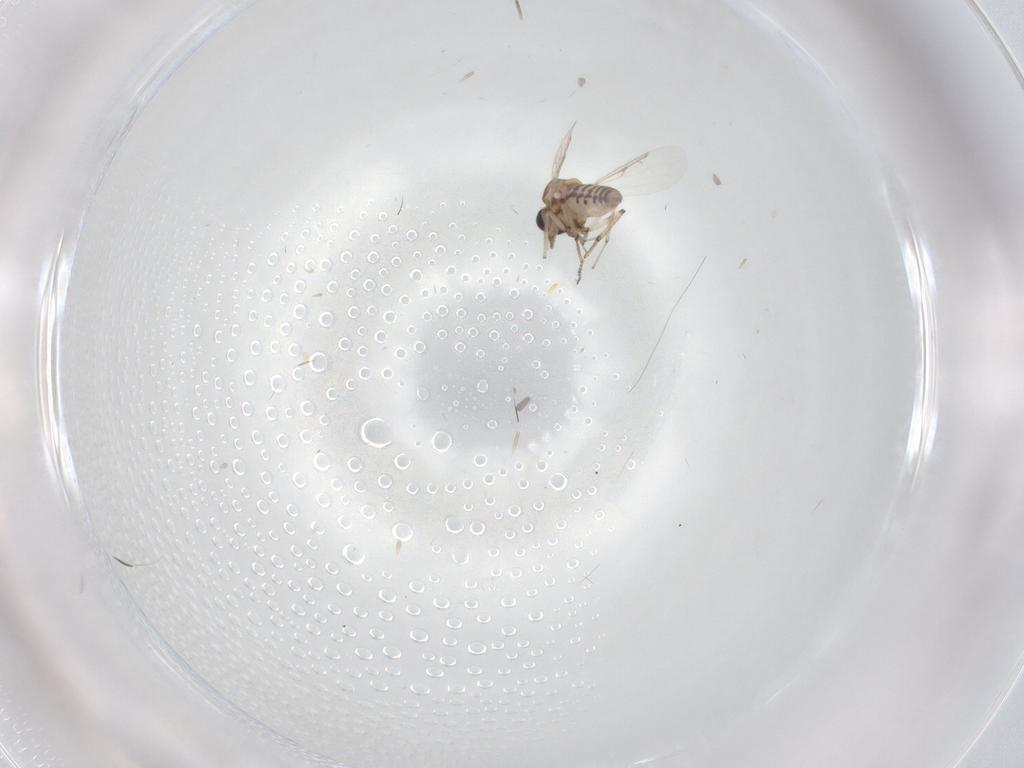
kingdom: Animalia
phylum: Arthropoda
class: Insecta
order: Diptera
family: Ceratopogonidae
